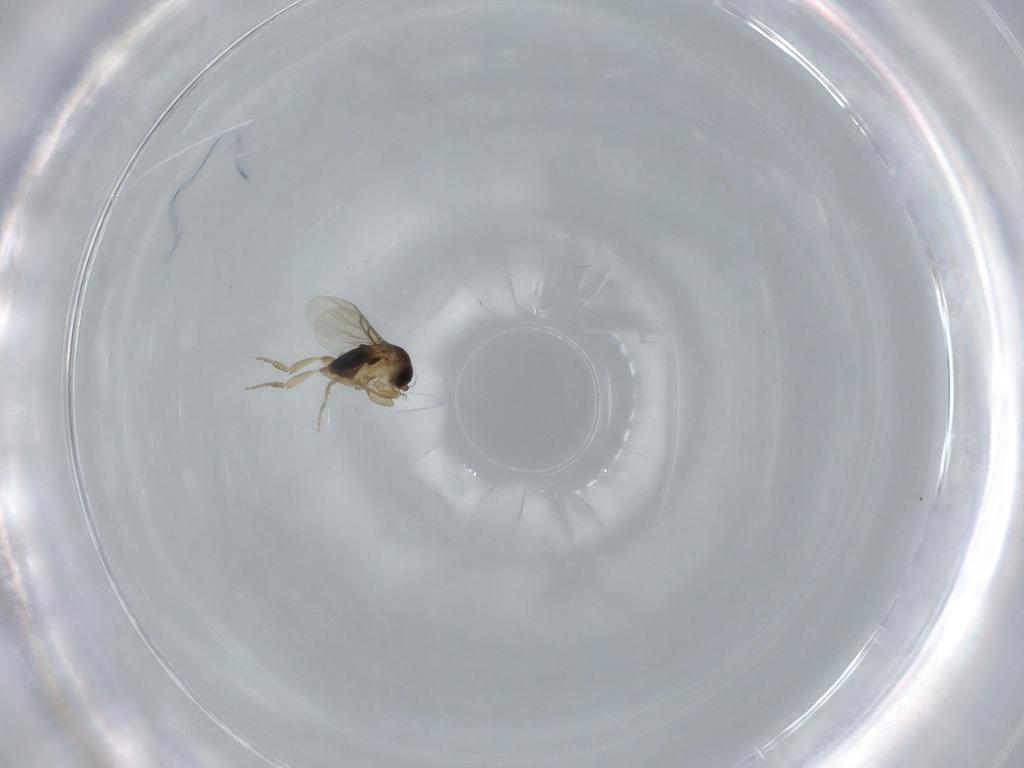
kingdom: Animalia
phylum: Arthropoda
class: Insecta
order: Diptera
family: Phoridae
